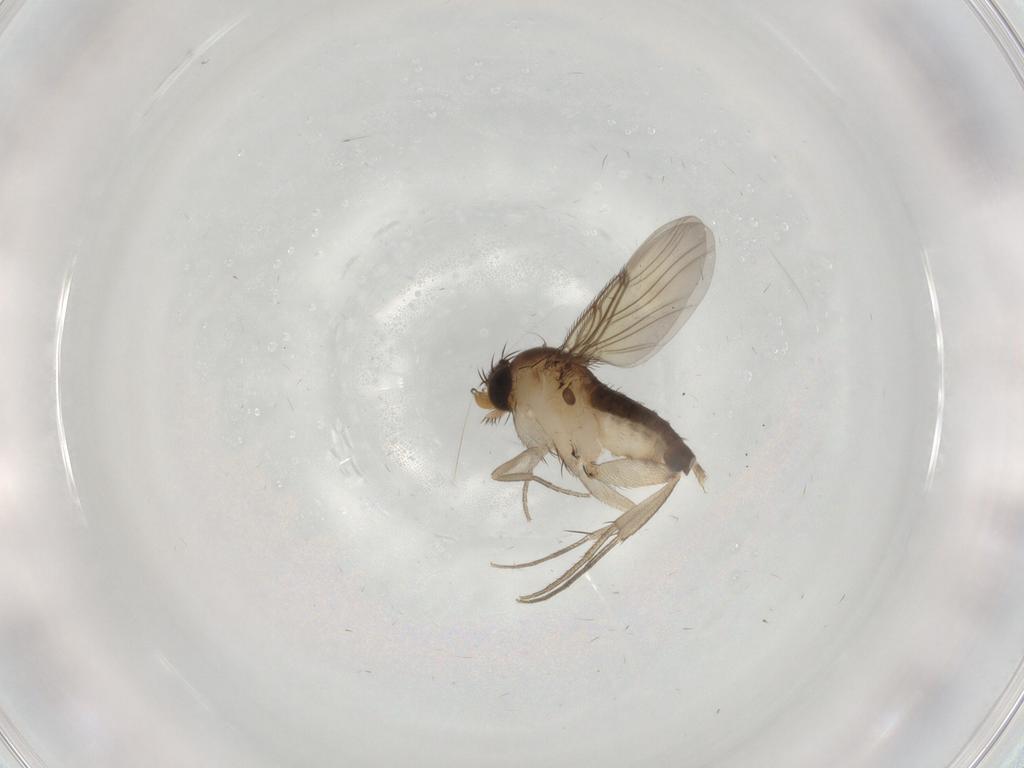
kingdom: Animalia
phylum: Arthropoda
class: Insecta
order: Diptera
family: Ceratopogonidae
